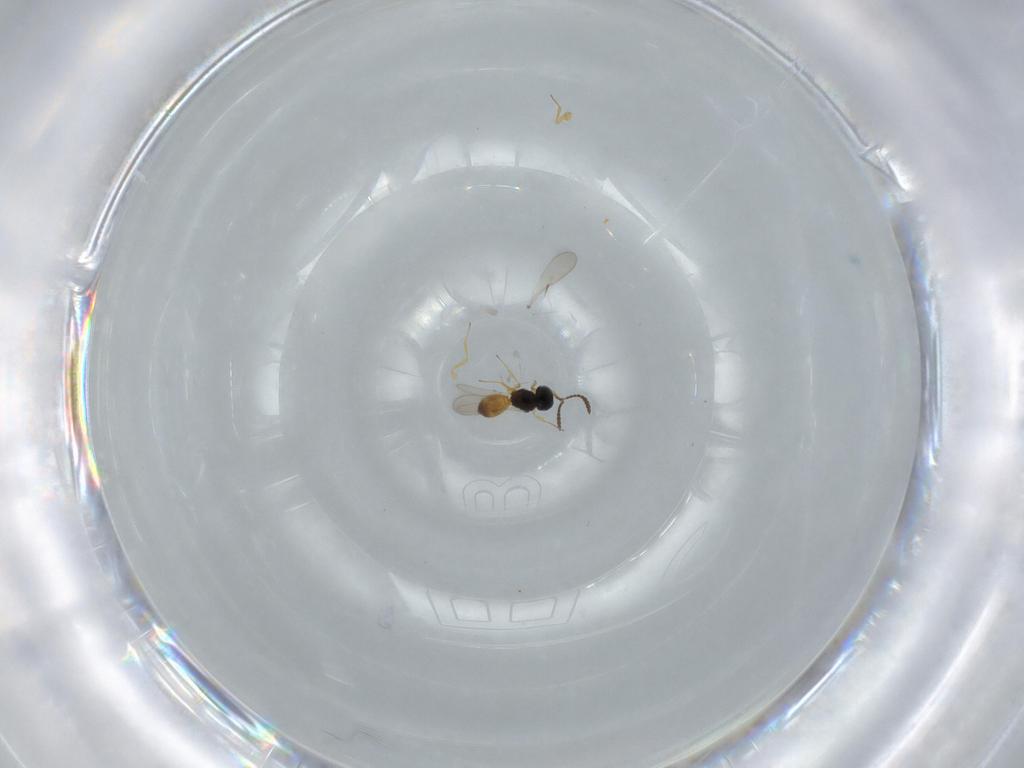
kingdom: Animalia
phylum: Arthropoda
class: Insecta
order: Hymenoptera
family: Scelionidae
